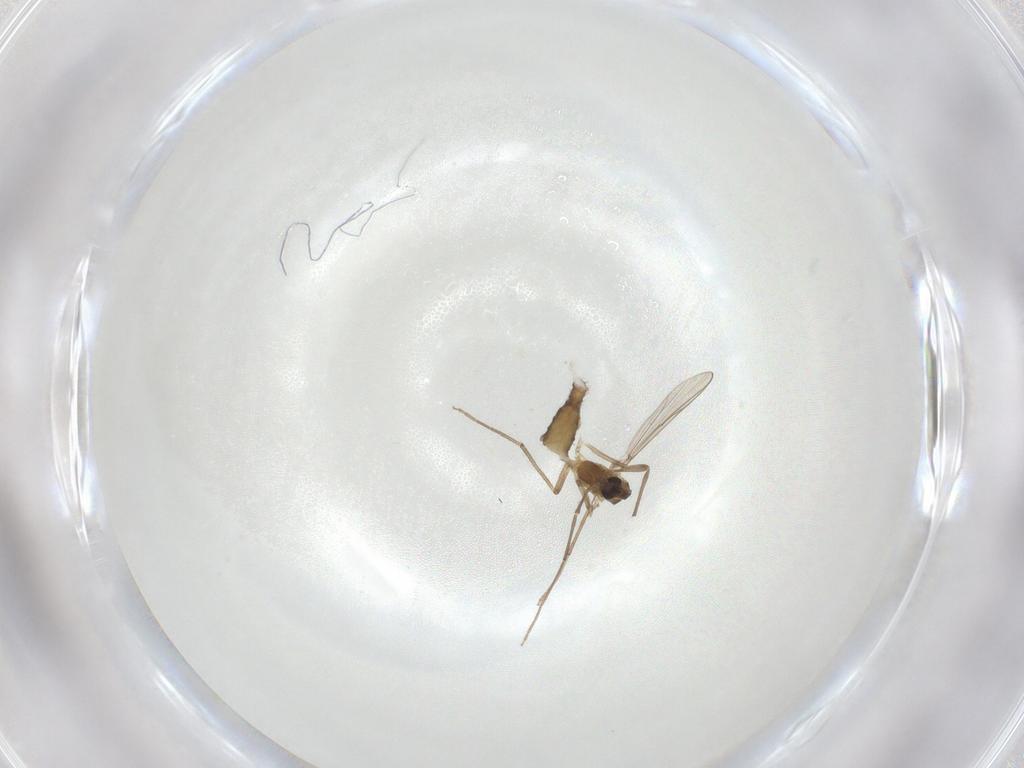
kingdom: Animalia
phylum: Arthropoda
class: Insecta
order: Diptera
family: Chironomidae
